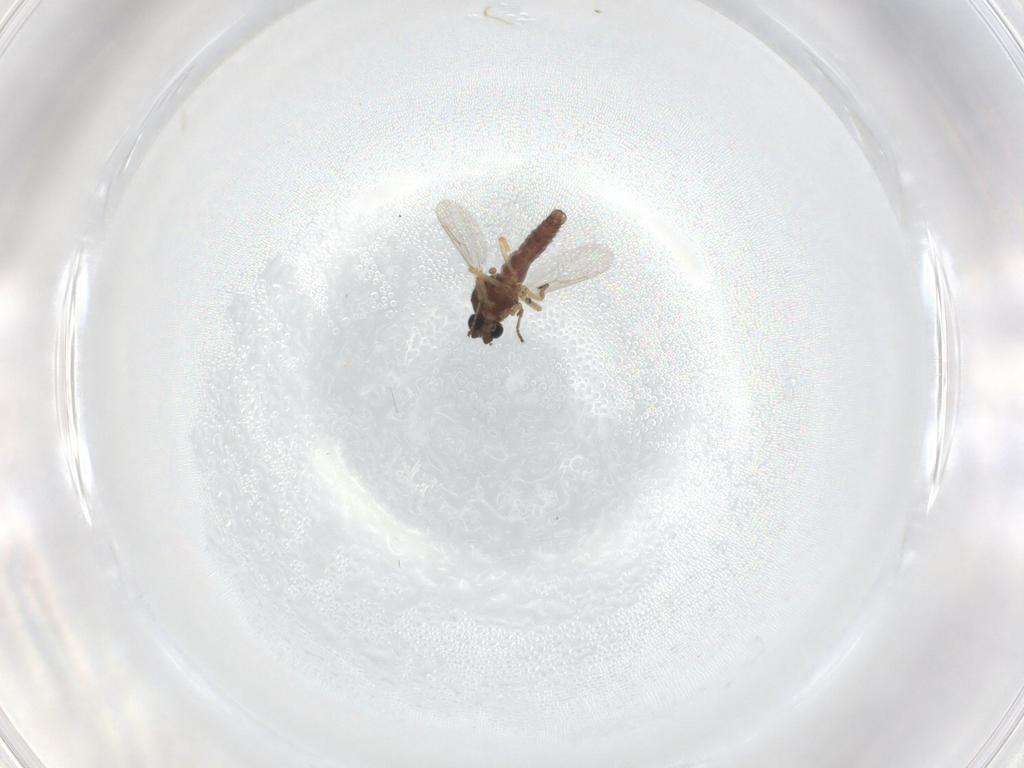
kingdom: Animalia
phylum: Arthropoda
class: Insecta
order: Diptera
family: Ceratopogonidae
